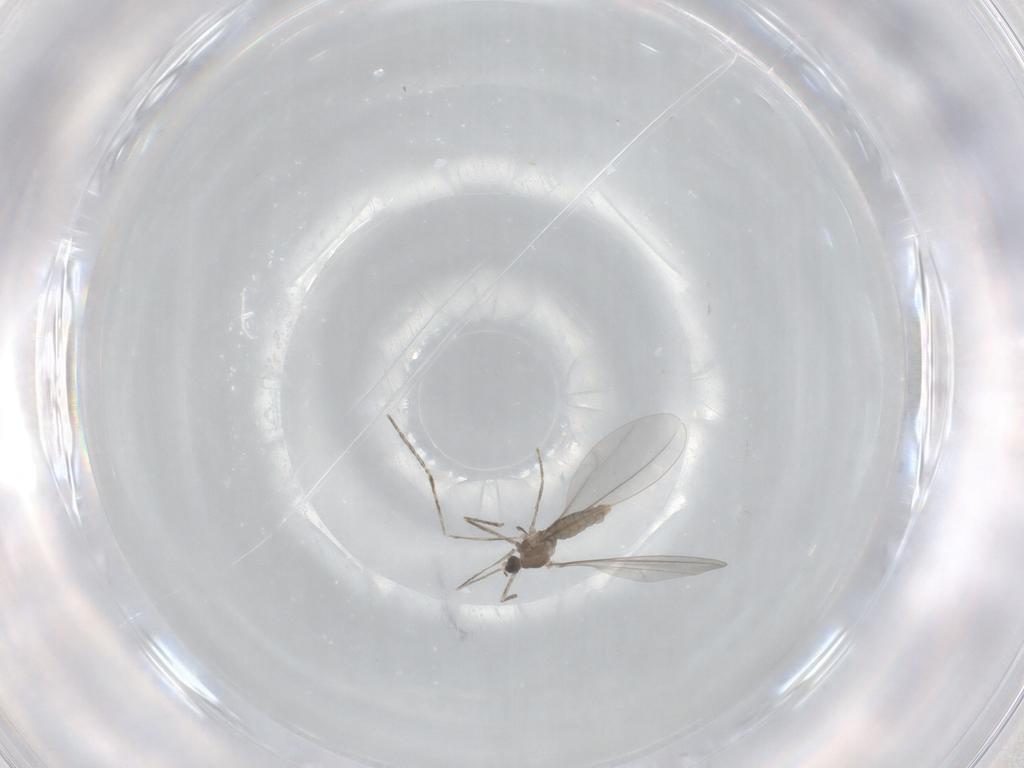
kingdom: Animalia
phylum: Arthropoda
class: Insecta
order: Diptera
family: Cecidomyiidae
